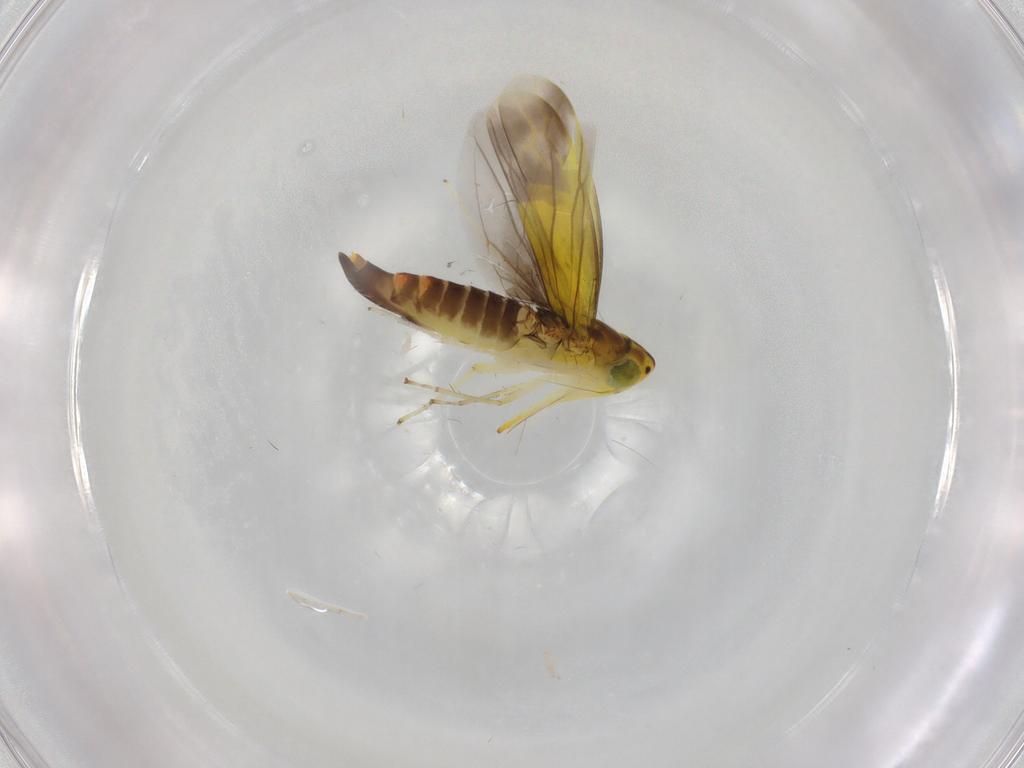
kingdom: Animalia
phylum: Arthropoda
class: Insecta
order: Hemiptera
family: Cicadellidae
